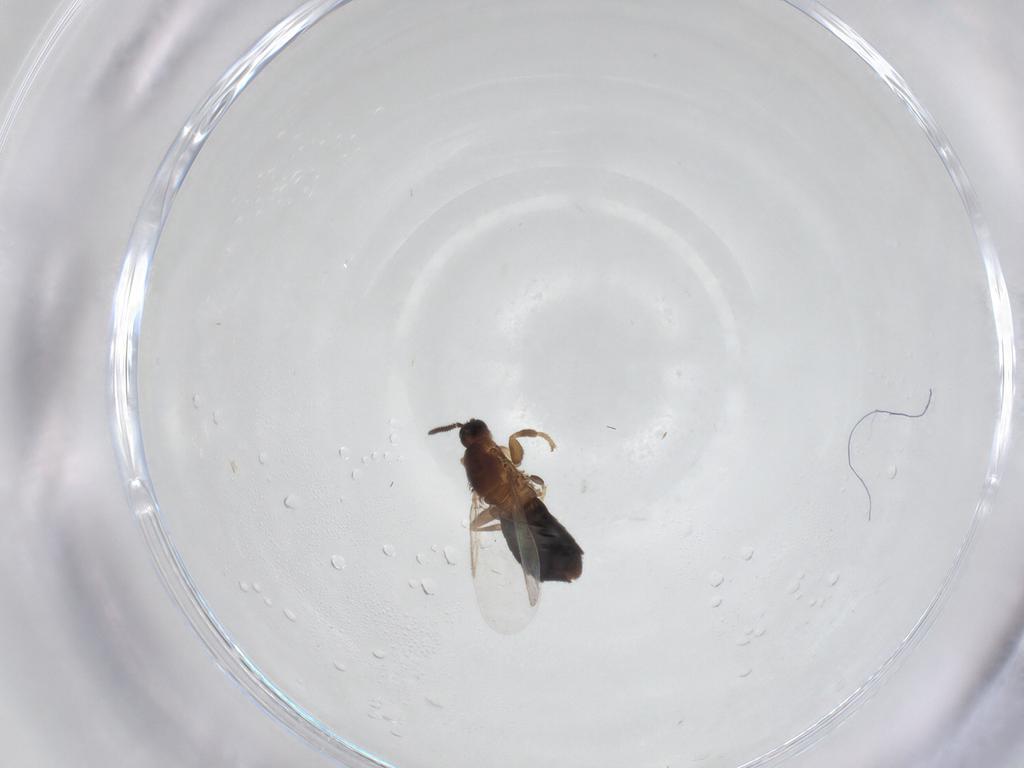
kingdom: Animalia
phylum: Arthropoda
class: Insecta
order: Diptera
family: Scatopsidae
